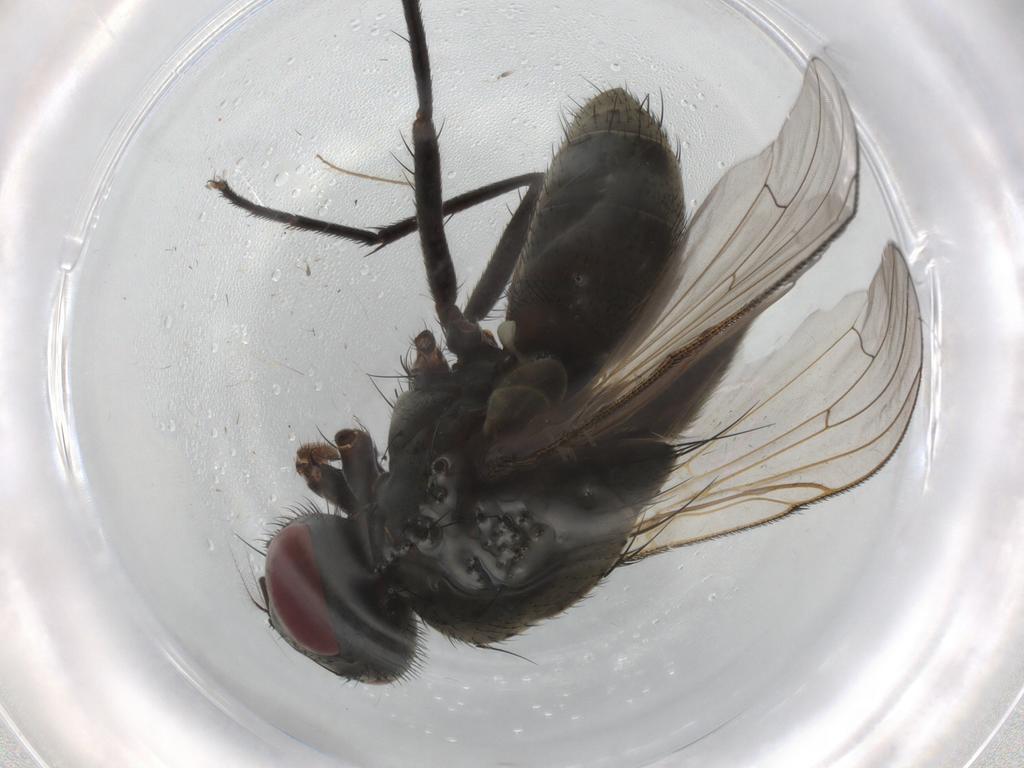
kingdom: Animalia
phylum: Arthropoda
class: Insecta
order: Diptera
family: Muscidae
